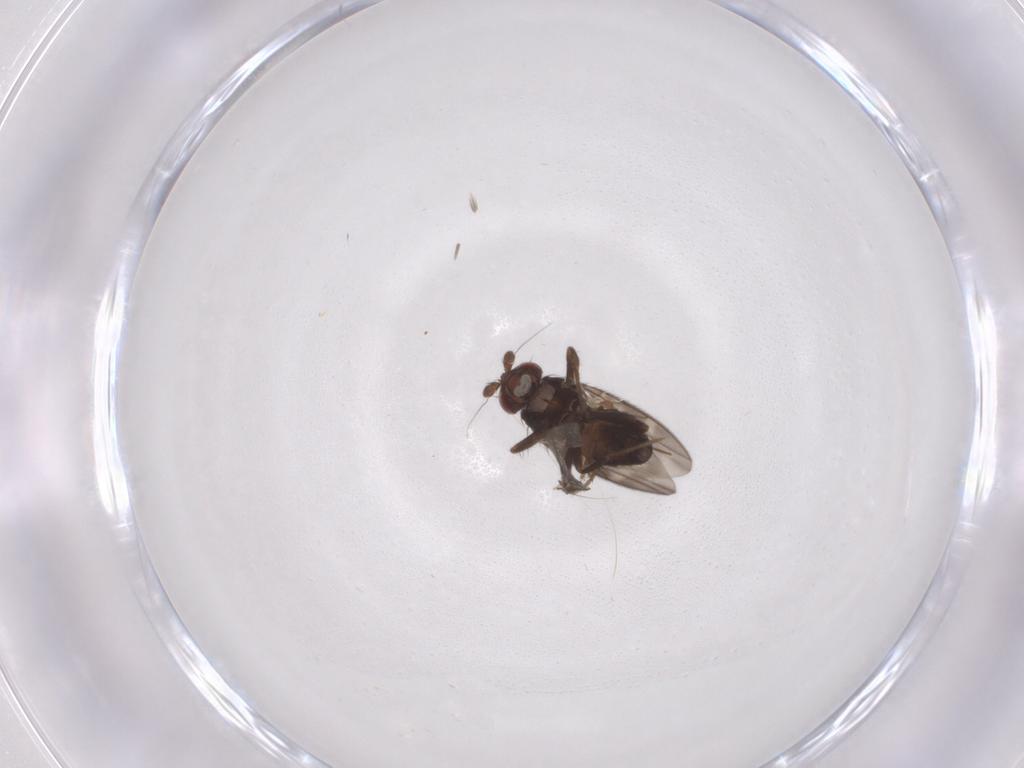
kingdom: Animalia
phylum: Arthropoda
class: Insecta
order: Diptera
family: Sphaeroceridae
